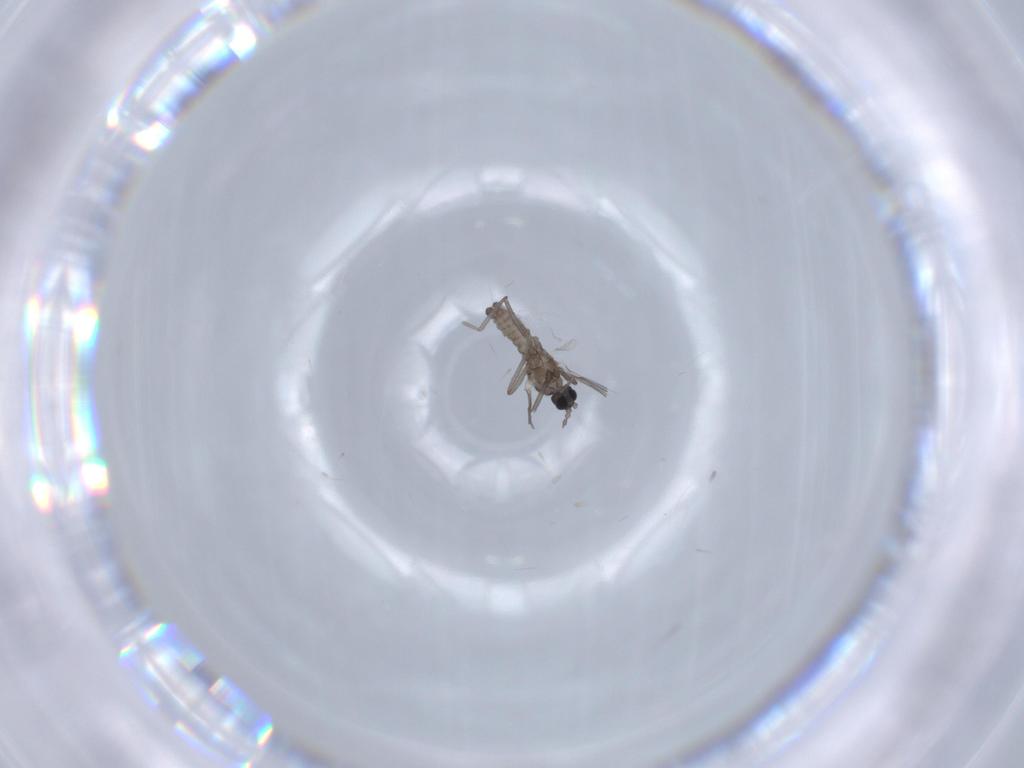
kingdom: Animalia
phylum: Arthropoda
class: Insecta
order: Diptera
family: Cecidomyiidae
